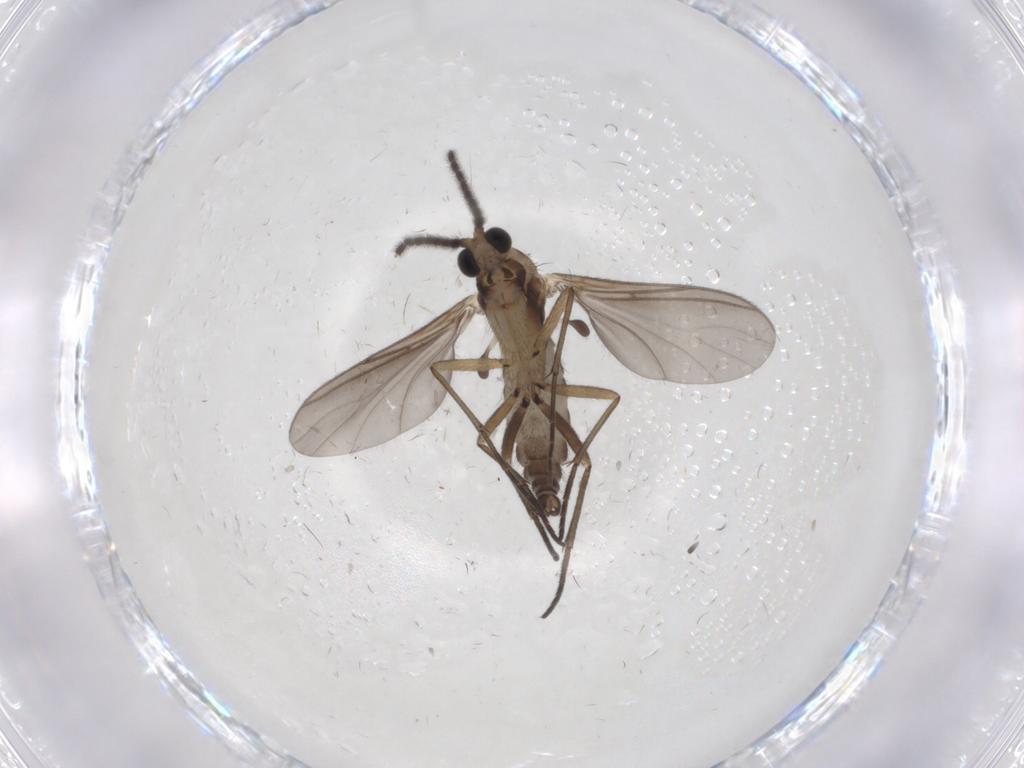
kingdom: Animalia
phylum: Arthropoda
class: Insecta
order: Diptera
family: Sciaridae
